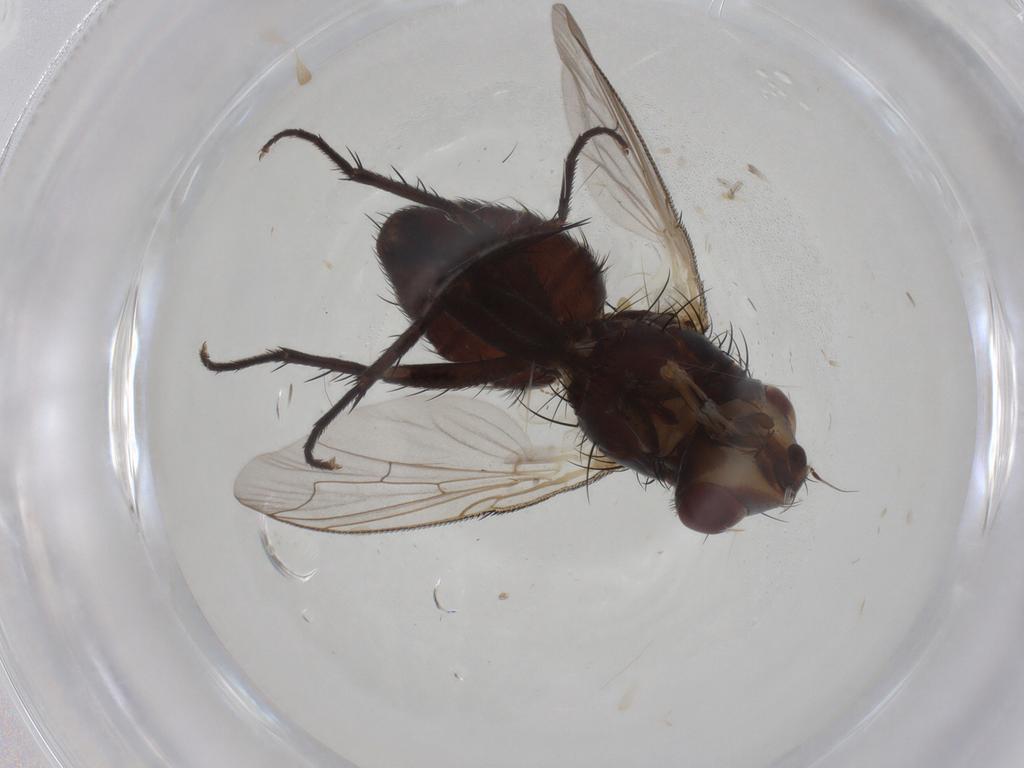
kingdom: Animalia
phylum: Arthropoda
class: Insecta
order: Diptera
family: Sarcophagidae
